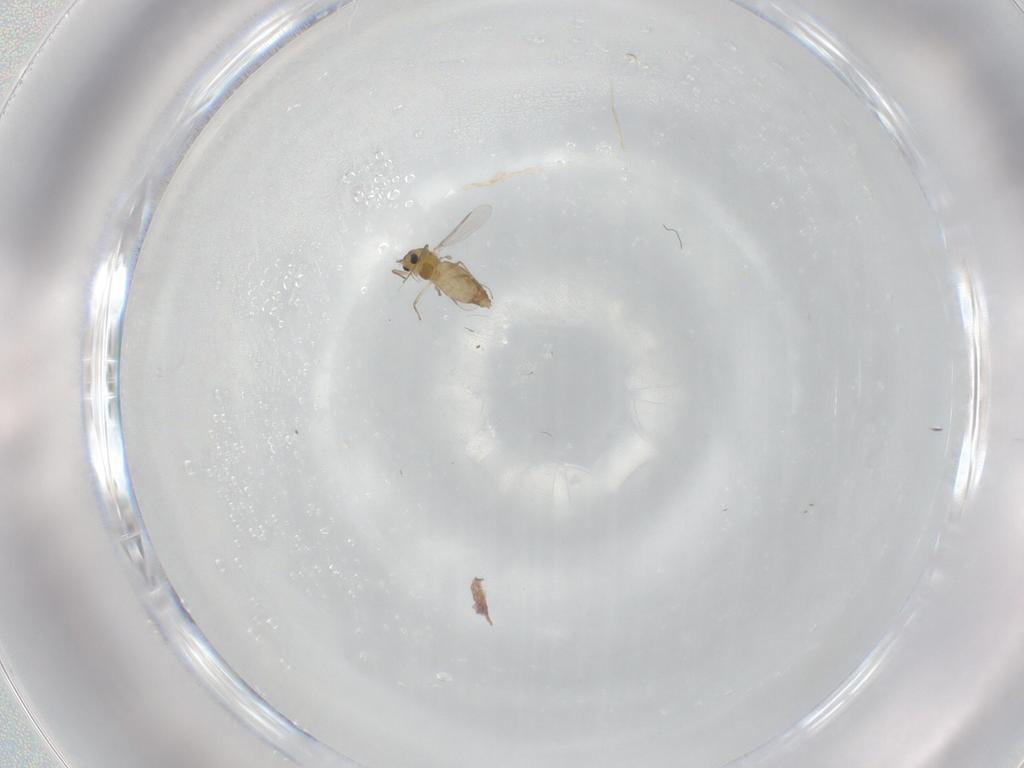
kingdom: Animalia
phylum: Arthropoda
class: Insecta
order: Diptera
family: Chironomidae
